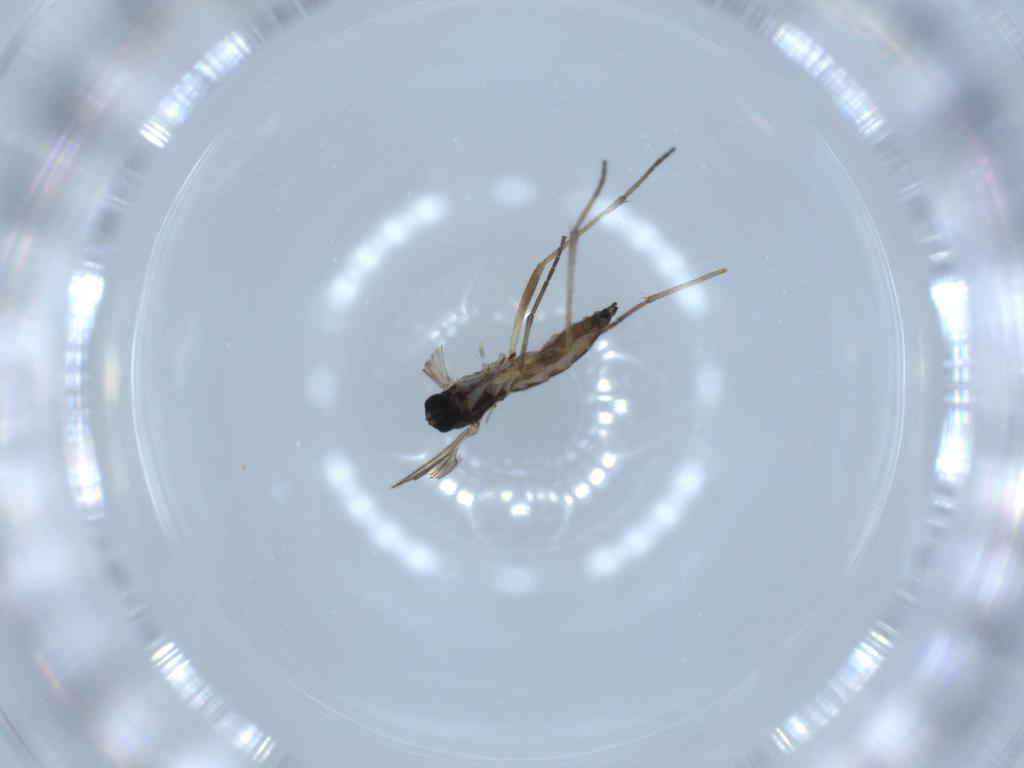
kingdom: Animalia
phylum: Arthropoda
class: Insecta
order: Diptera
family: Sciaridae
